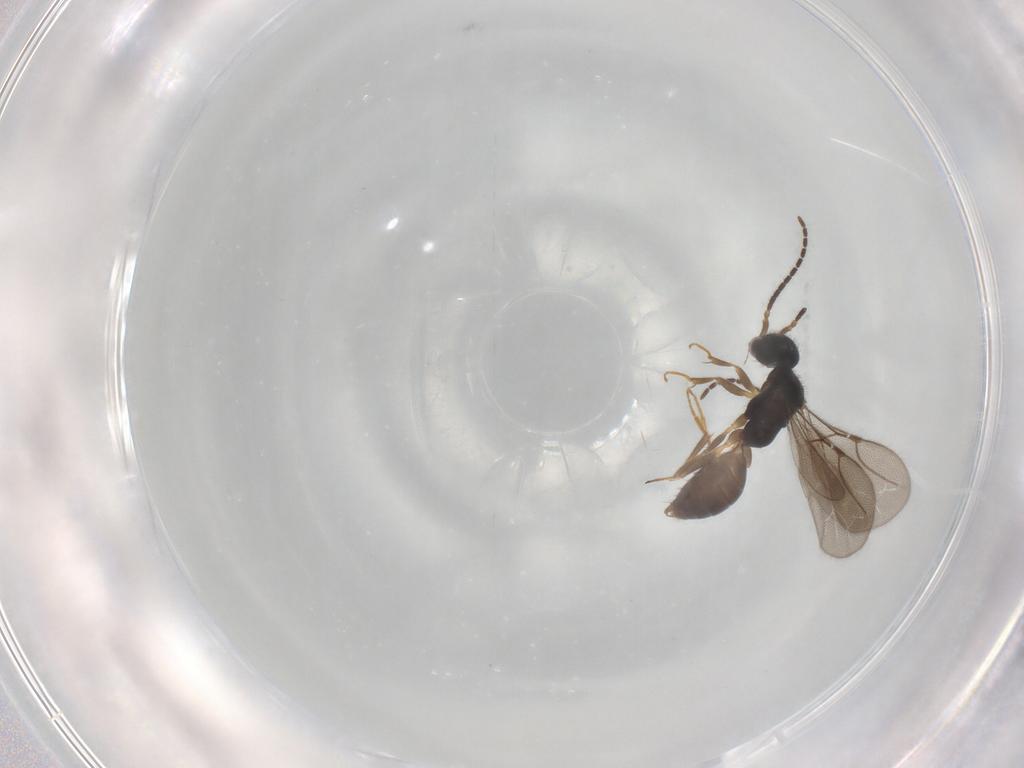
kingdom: Animalia
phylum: Arthropoda
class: Insecta
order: Hymenoptera
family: Bethylidae
